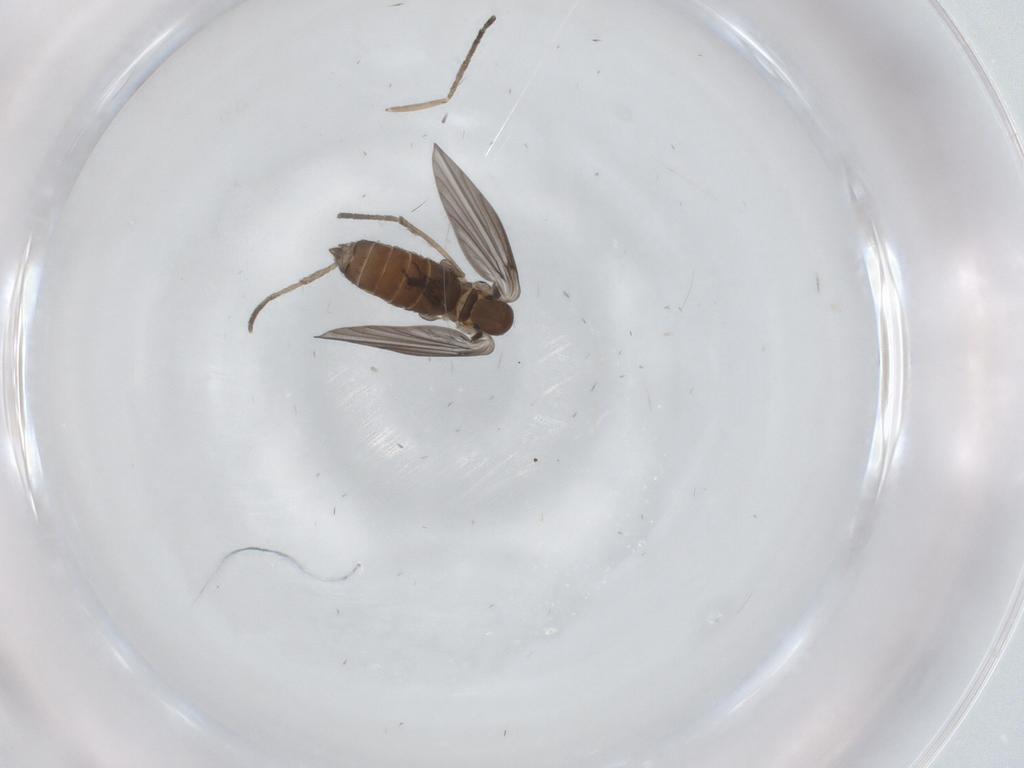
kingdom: Animalia
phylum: Arthropoda
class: Insecta
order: Diptera
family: Psychodidae
